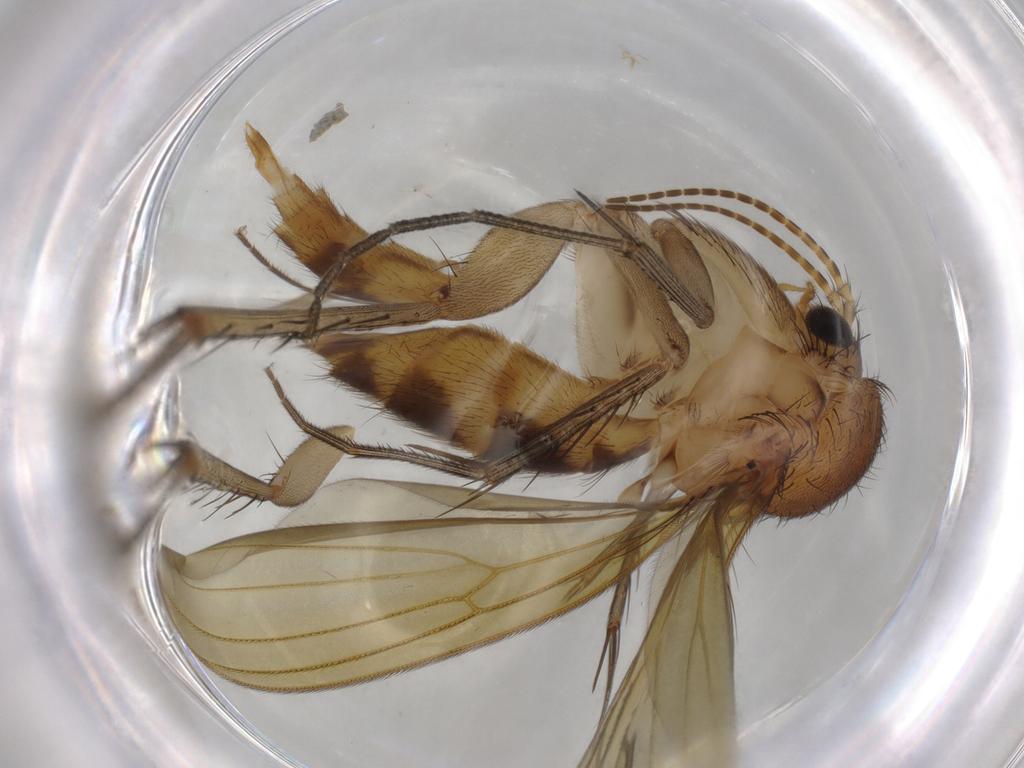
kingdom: Animalia
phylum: Arthropoda
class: Insecta
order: Diptera
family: Mycetophilidae
